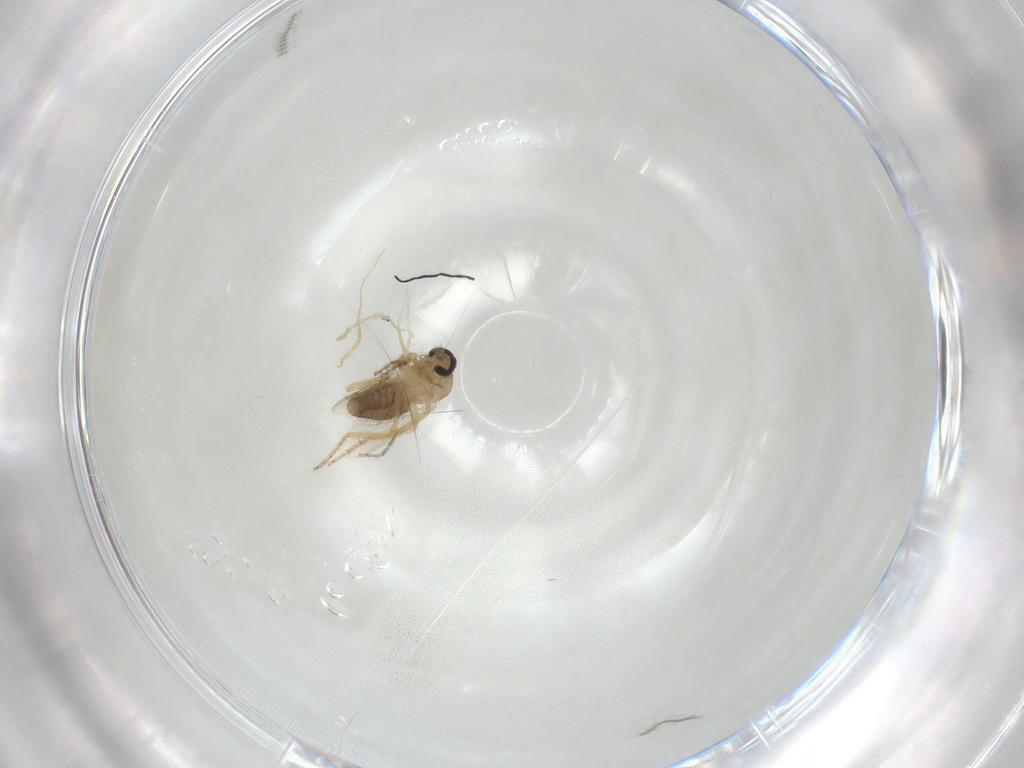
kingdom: Animalia
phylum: Arthropoda
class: Insecta
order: Diptera
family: Ceratopogonidae
